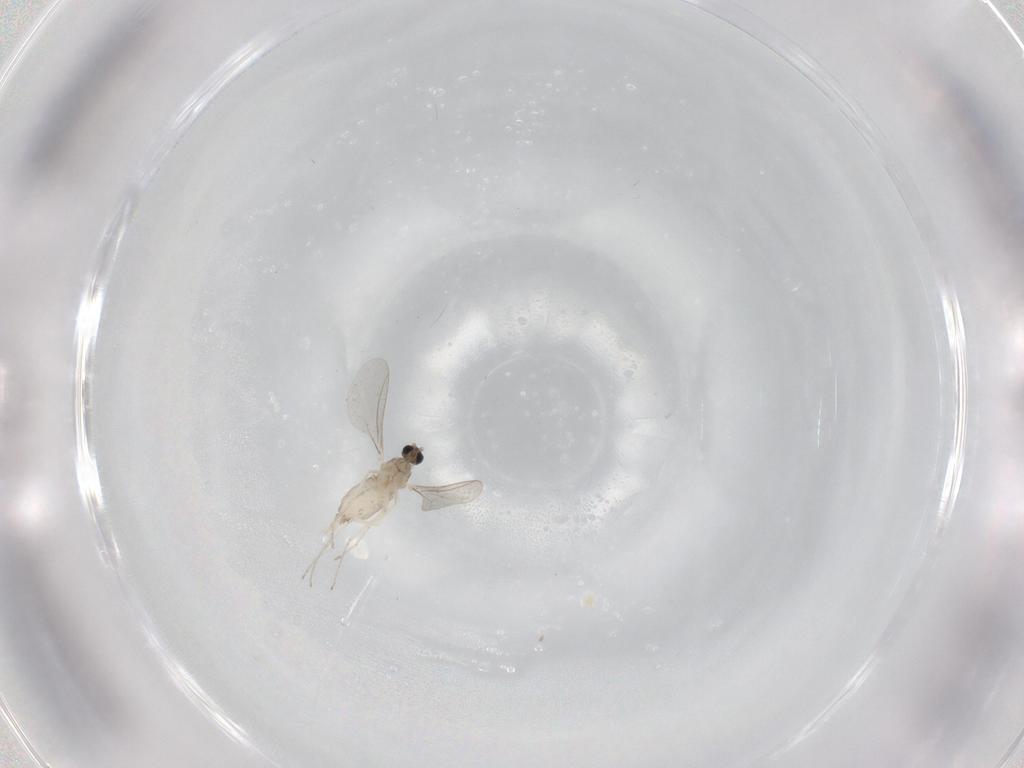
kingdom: Animalia
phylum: Arthropoda
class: Insecta
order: Diptera
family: Cecidomyiidae
